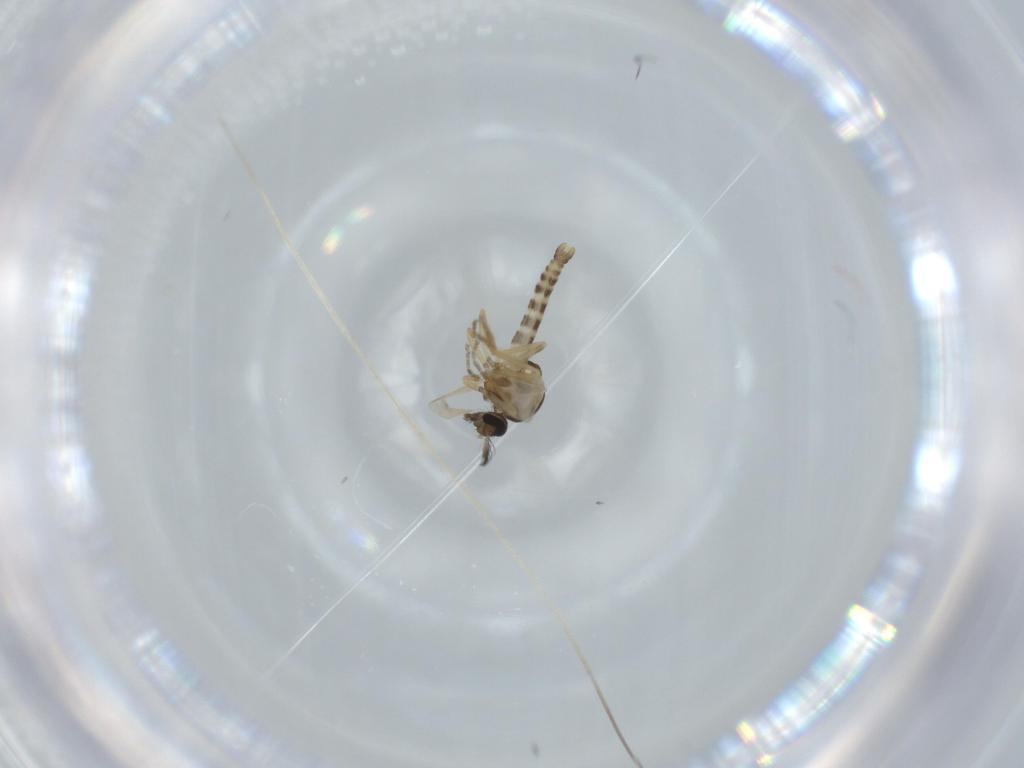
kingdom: Animalia
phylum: Arthropoda
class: Insecta
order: Diptera
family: Ceratopogonidae
